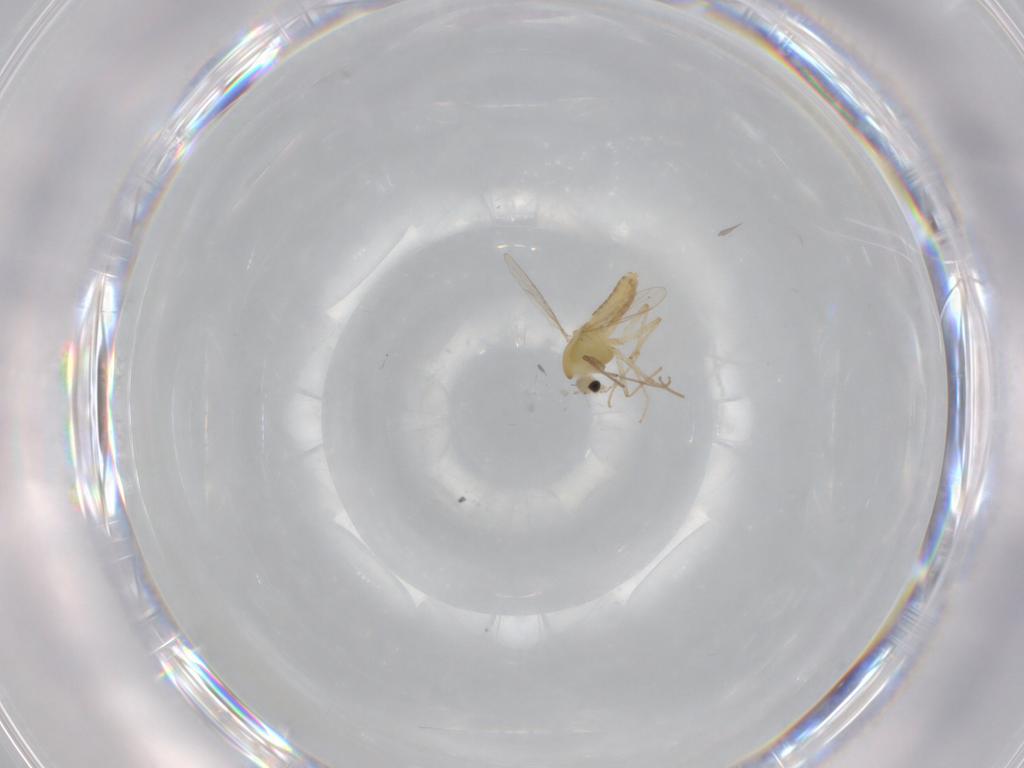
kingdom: Animalia
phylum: Arthropoda
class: Insecta
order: Diptera
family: Chironomidae
